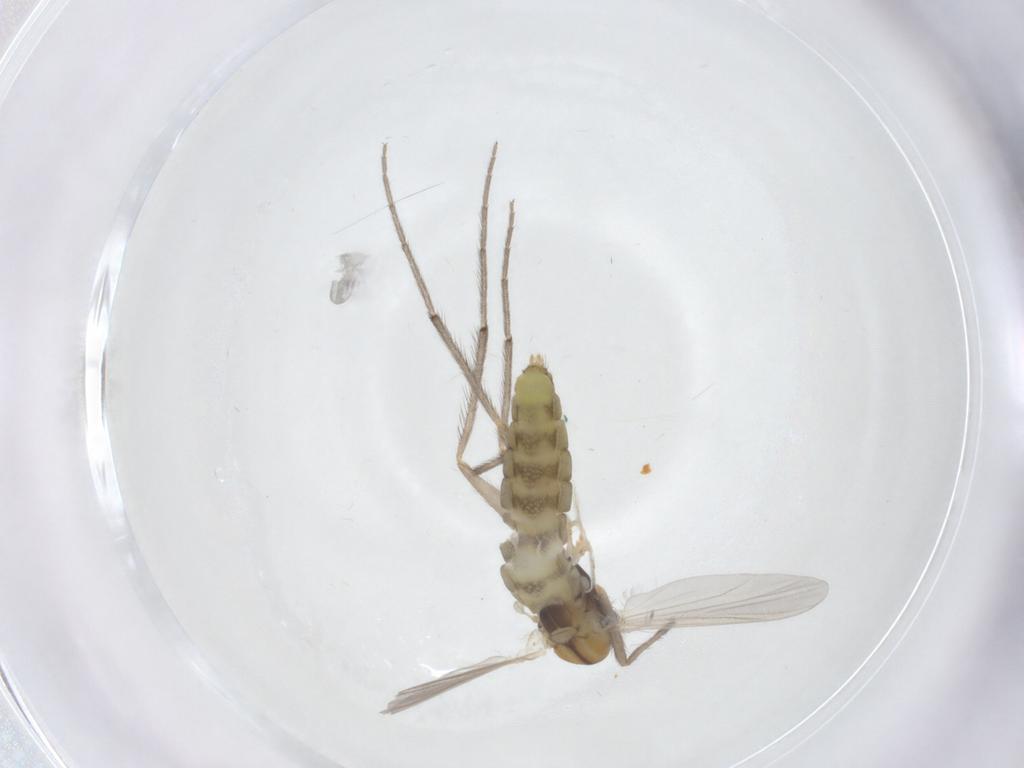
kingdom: Animalia
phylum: Arthropoda
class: Insecta
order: Diptera
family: Chironomidae
